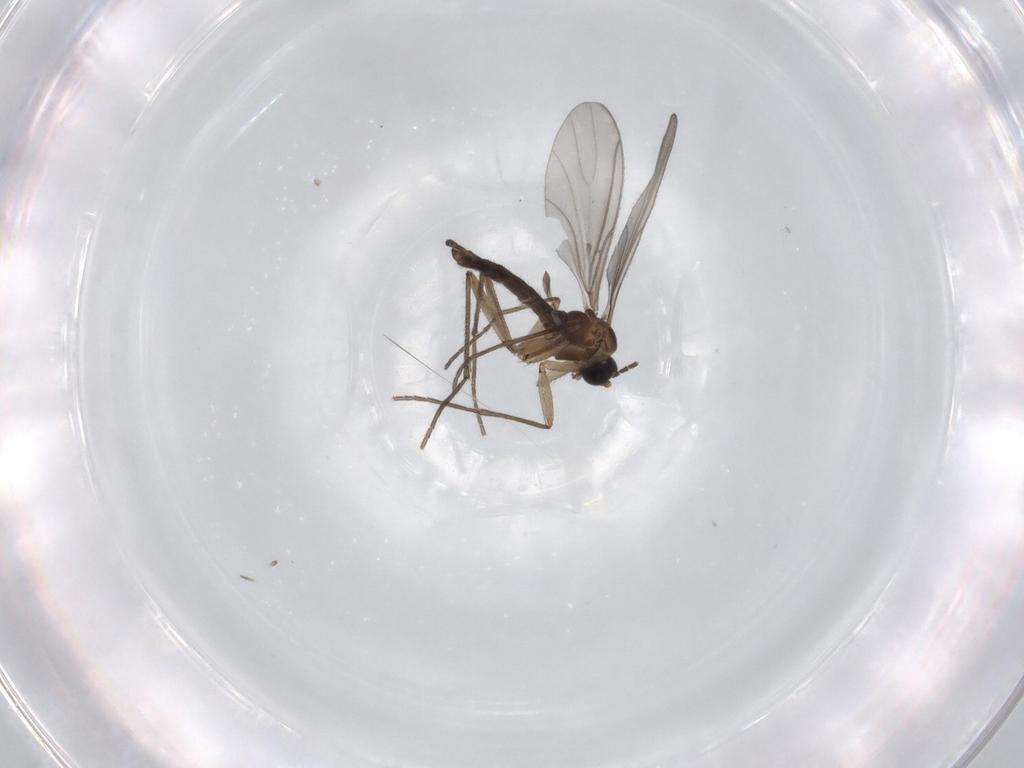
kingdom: Animalia
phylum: Arthropoda
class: Insecta
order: Diptera
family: Sciaridae
